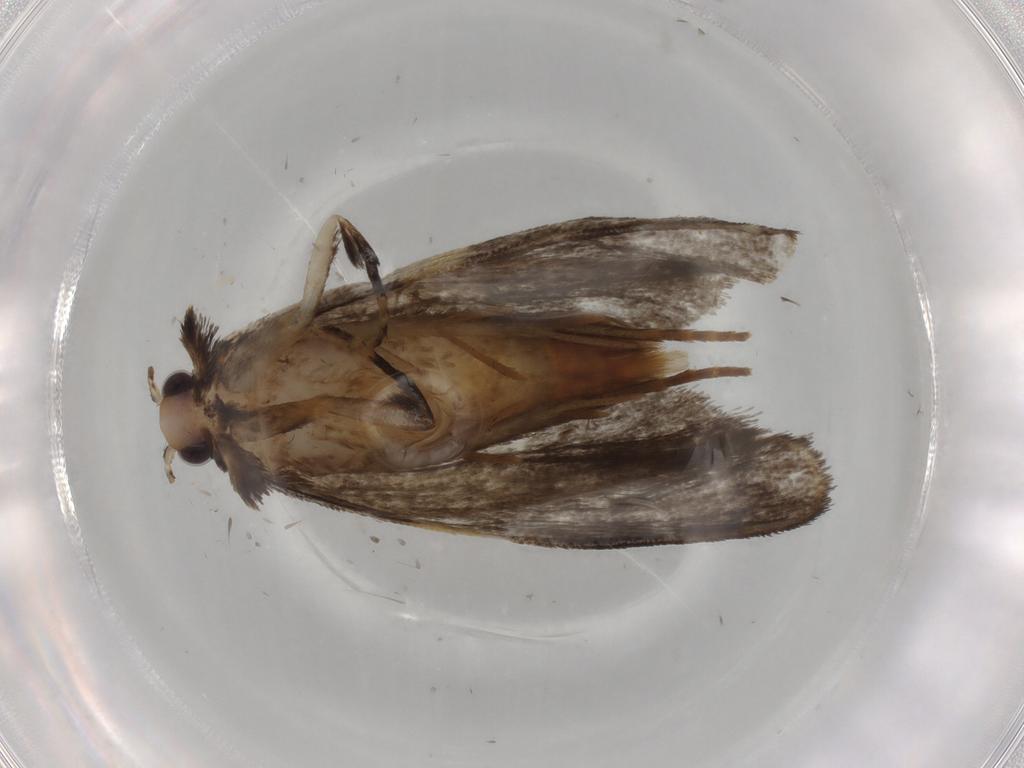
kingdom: Animalia
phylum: Arthropoda
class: Insecta
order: Lepidoptera
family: Psychidae
